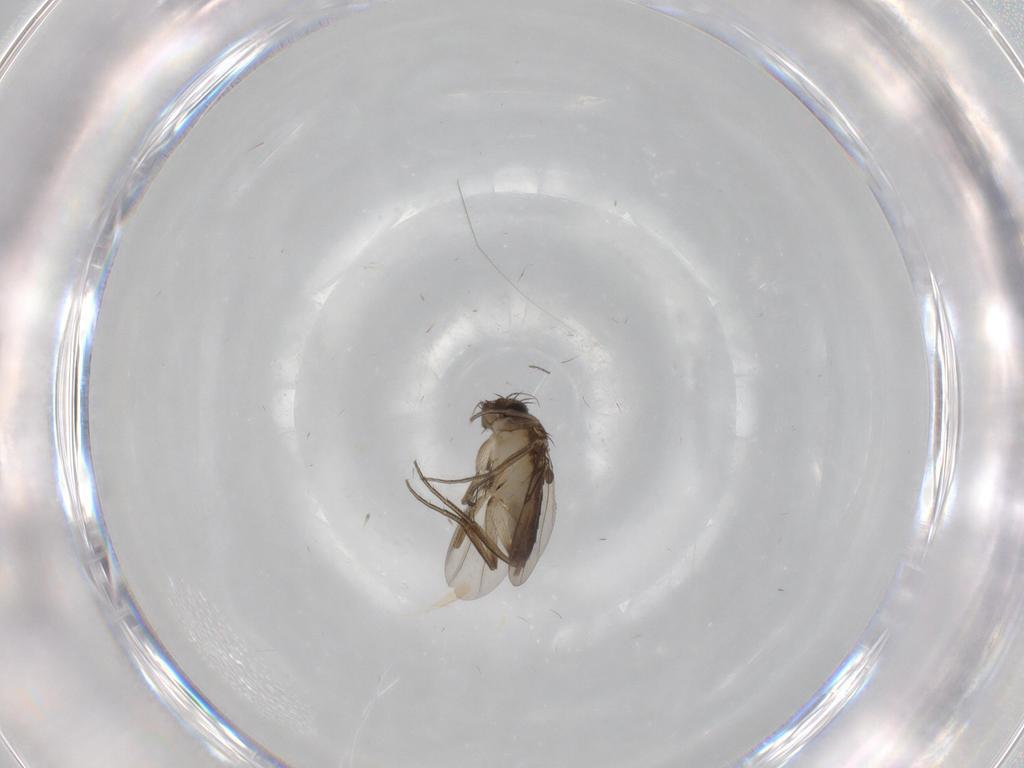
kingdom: Animalia
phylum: Arthropoda
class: Insecta
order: Diptera
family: Phoridae
